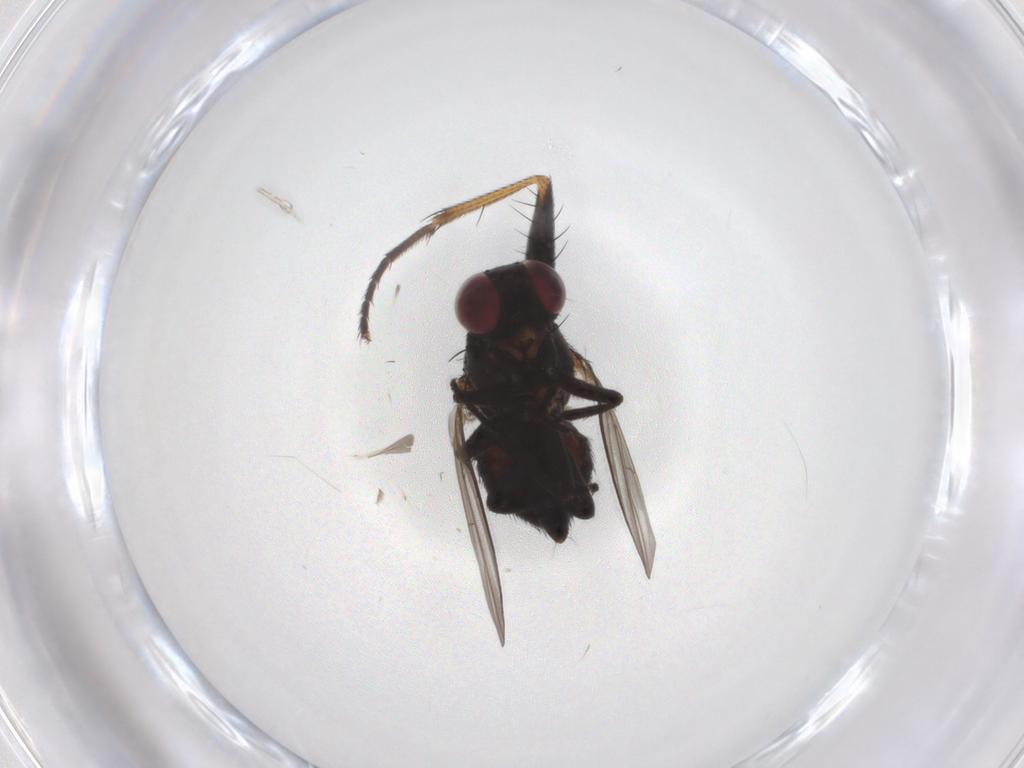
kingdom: Animalia
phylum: Arthropoda
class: Insecta
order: Diptera
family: Muscidae
